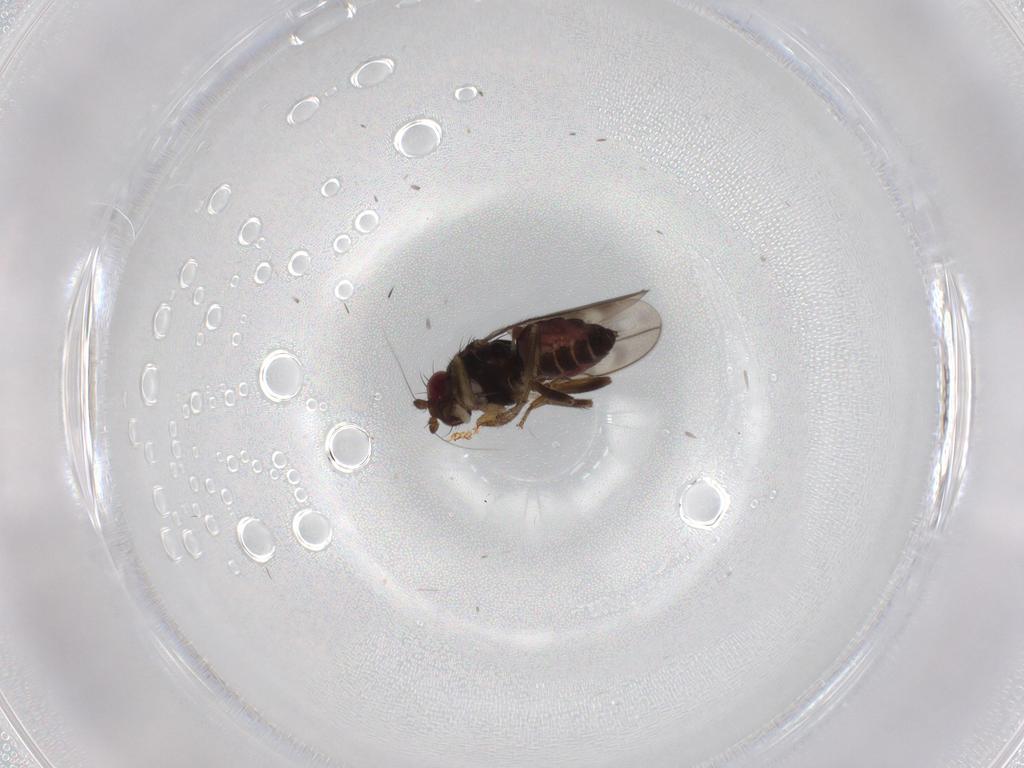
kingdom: Animalia
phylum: Arthropoda
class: Insecta
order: Diptera
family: Chironomidae
